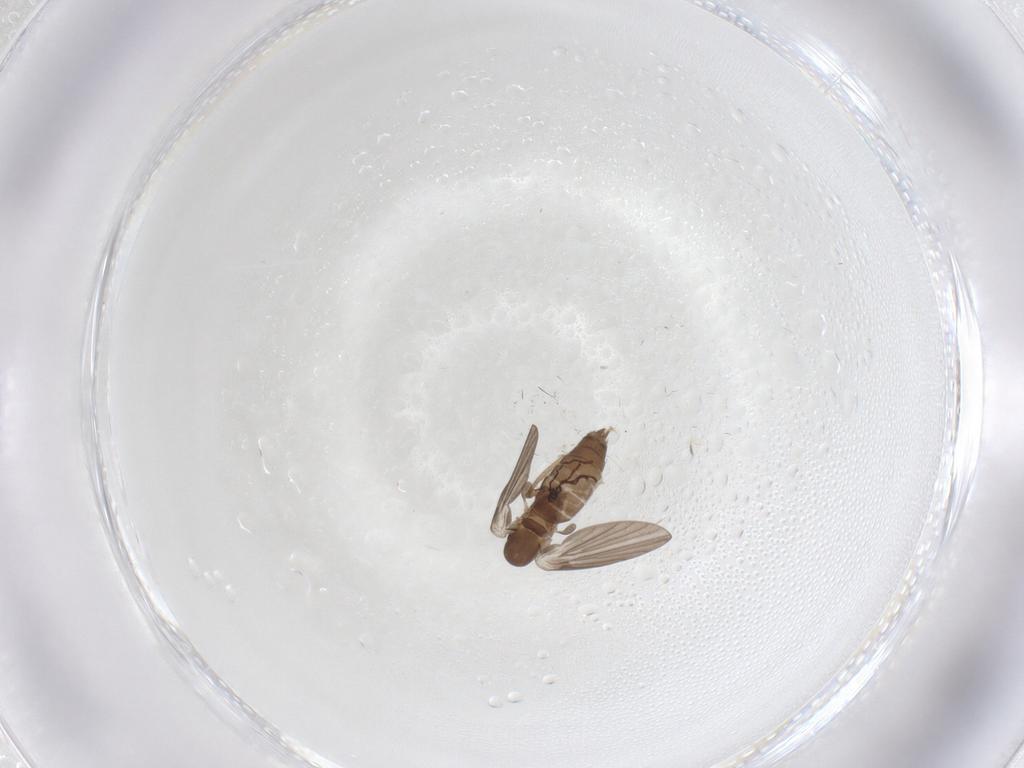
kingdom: Animalia
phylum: Arthropoda
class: Insecta
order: Diptera
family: Psychodidae
